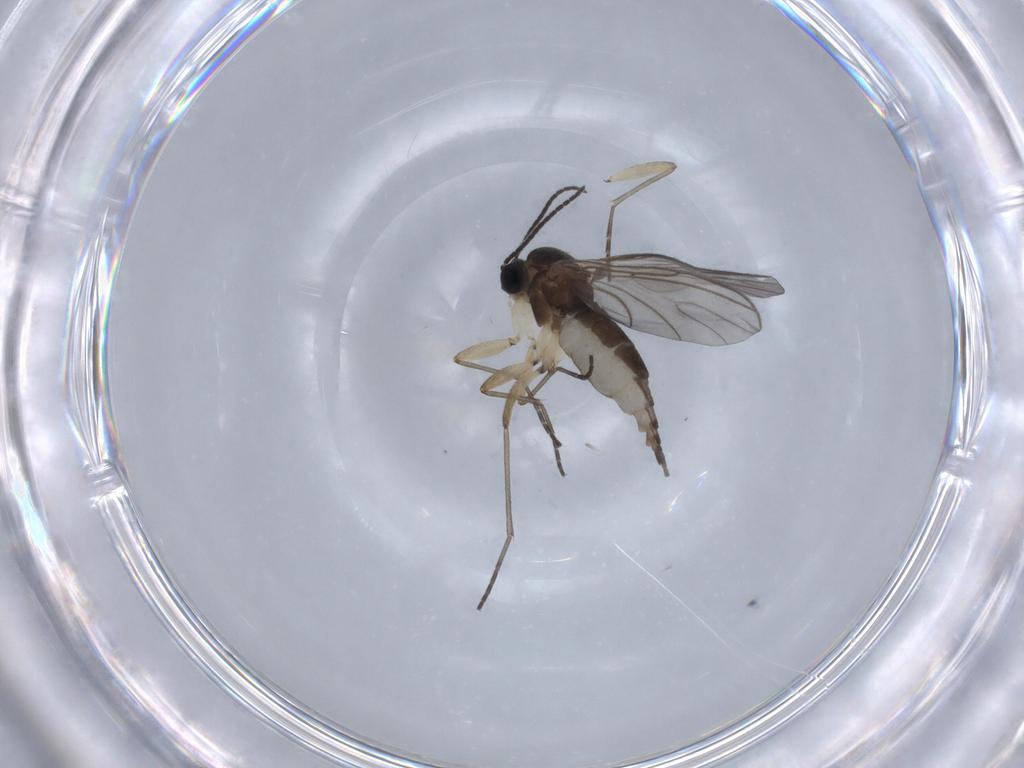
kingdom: Animalia
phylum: Arthropoda
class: Insecta
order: Diptera
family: Sciaridae
